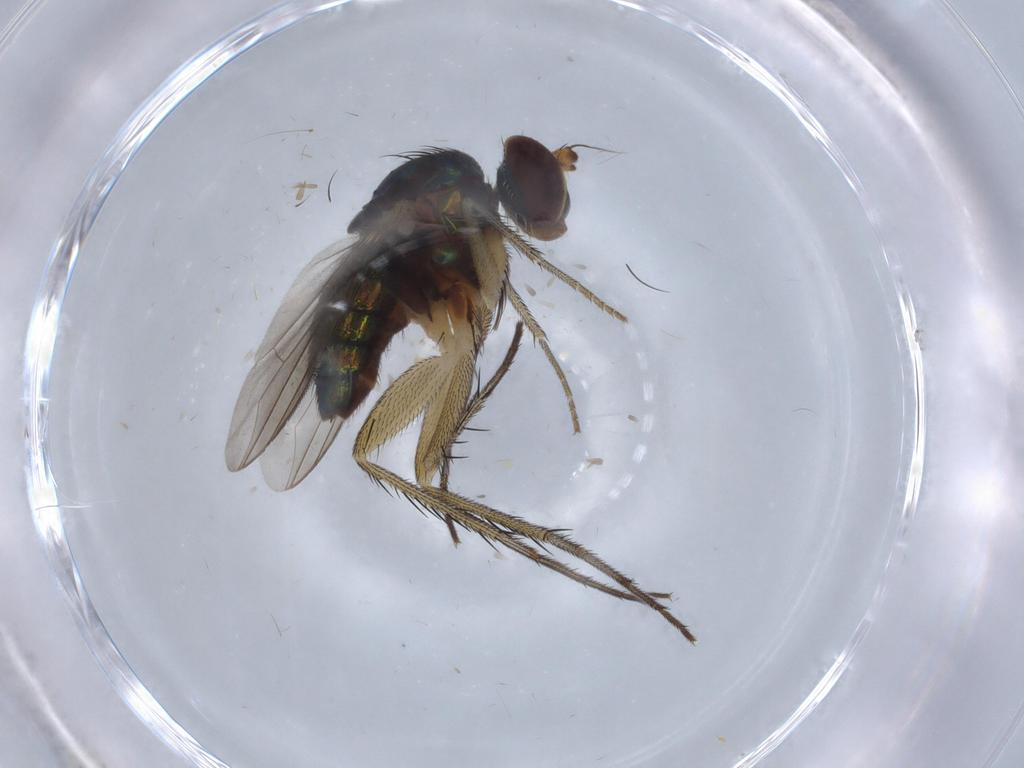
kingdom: Animalia
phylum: Arthropoda
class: Insecta
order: Diptera
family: Dolichopodidae
